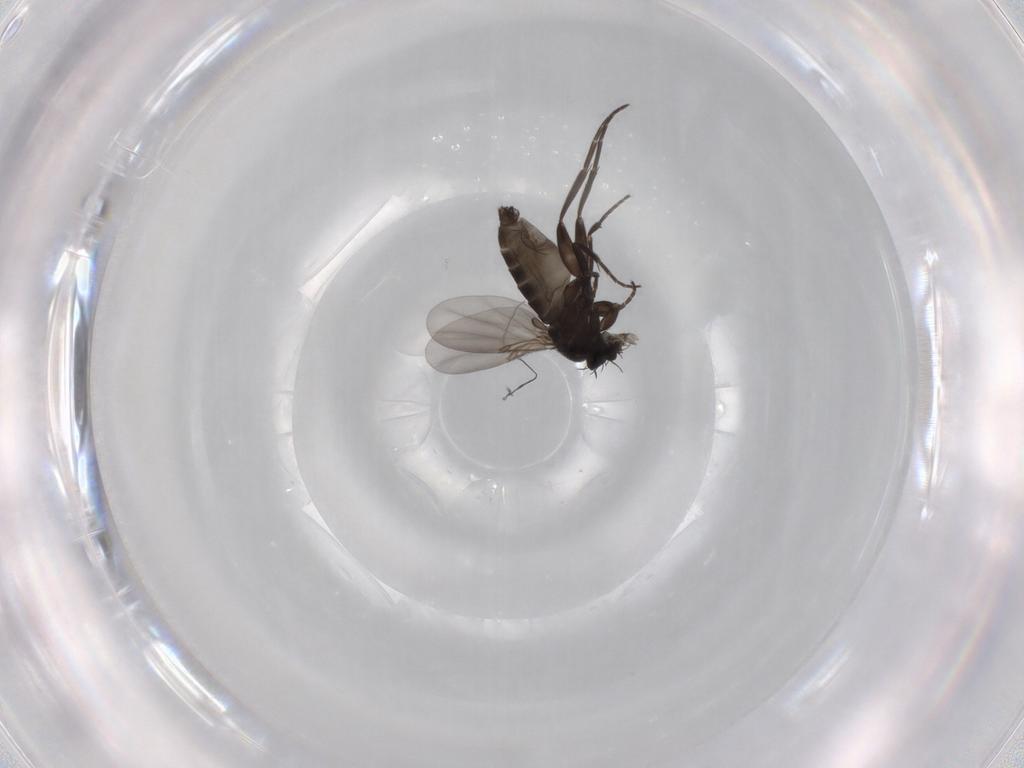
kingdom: Animalia
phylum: Arthropoda
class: Insecta
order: Diptera
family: Phoridae
